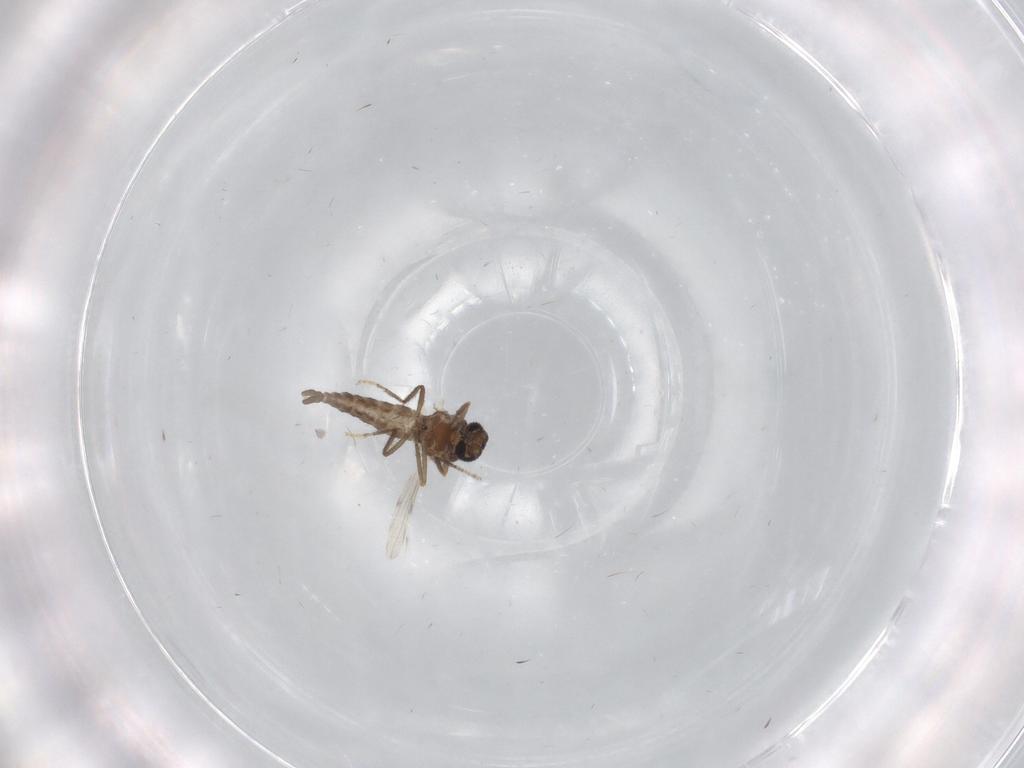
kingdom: Animalia
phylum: Arthropoda
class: Insecta
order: Diptera
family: Ceratopogonidae
